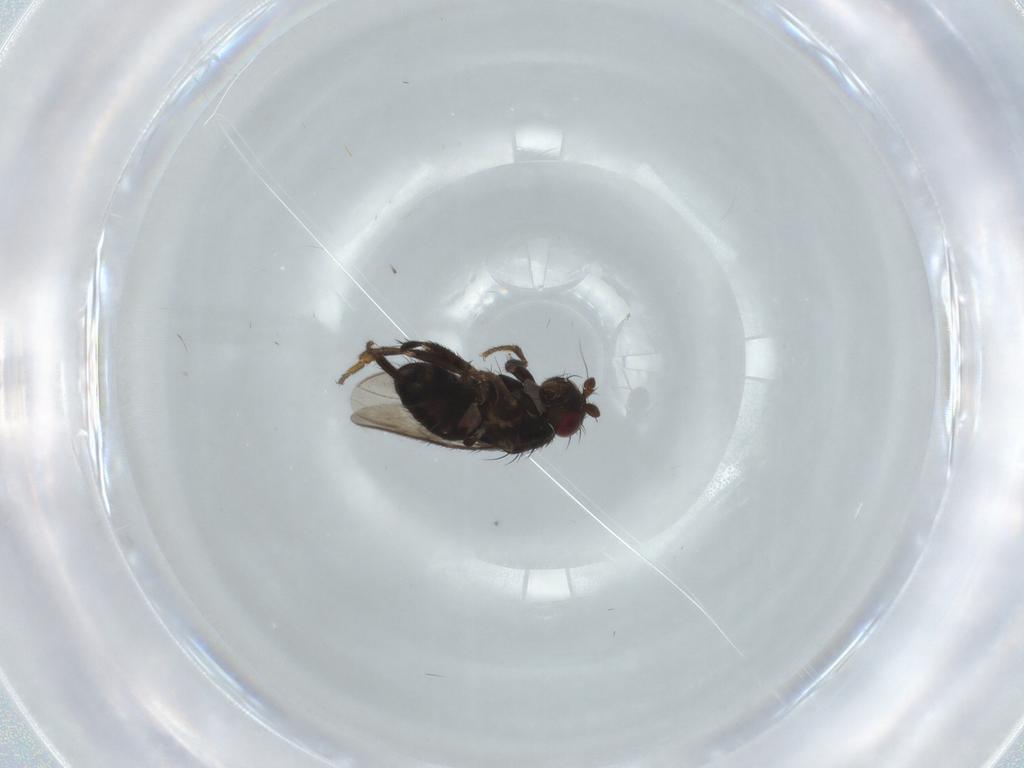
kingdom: Animalia
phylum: Arthropoda
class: Insecta
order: Diptera
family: Sphaeroceridae
